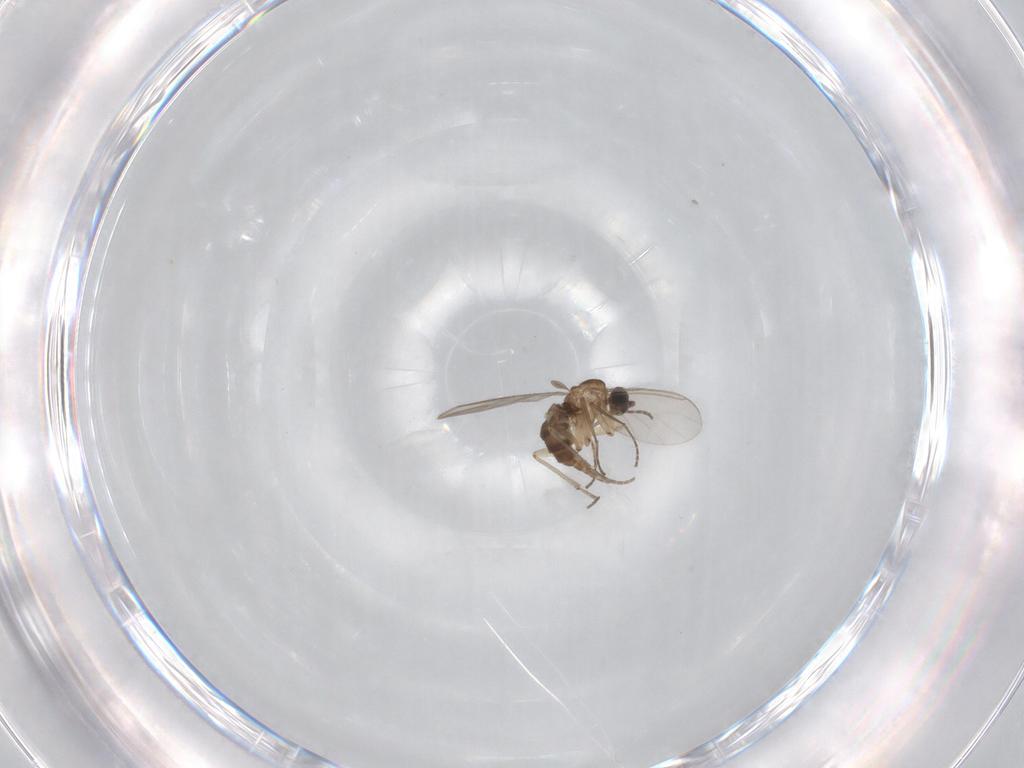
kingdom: Animalia
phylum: Arthropoda
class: Insecta
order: Diptera
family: Sciaridae
